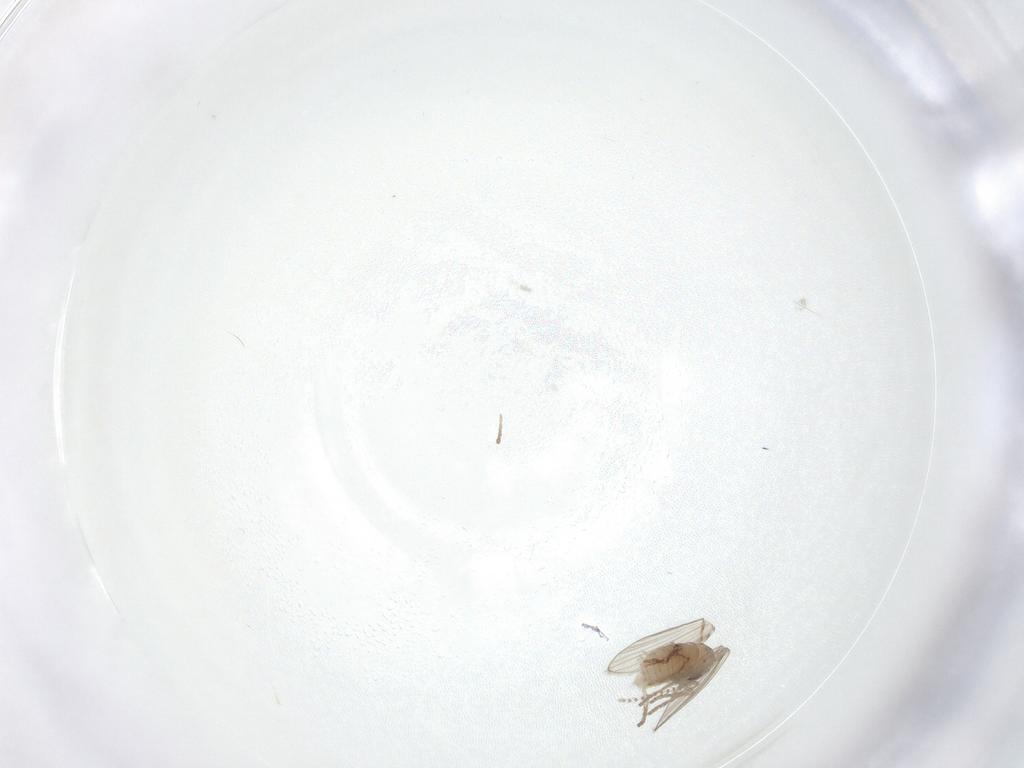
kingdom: Animalia
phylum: Arthropoda
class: Insecta
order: Diptera
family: Psychodidae
